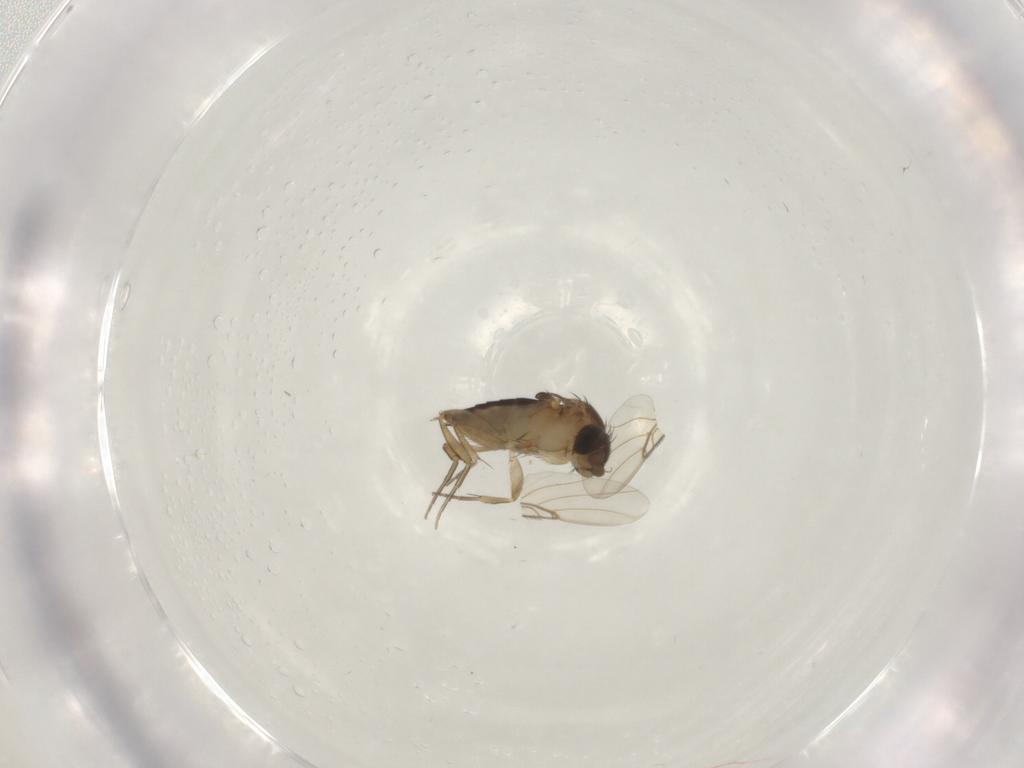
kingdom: Animalia
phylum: Arthropoda
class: Insecta
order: Diptera
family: Phoridae
